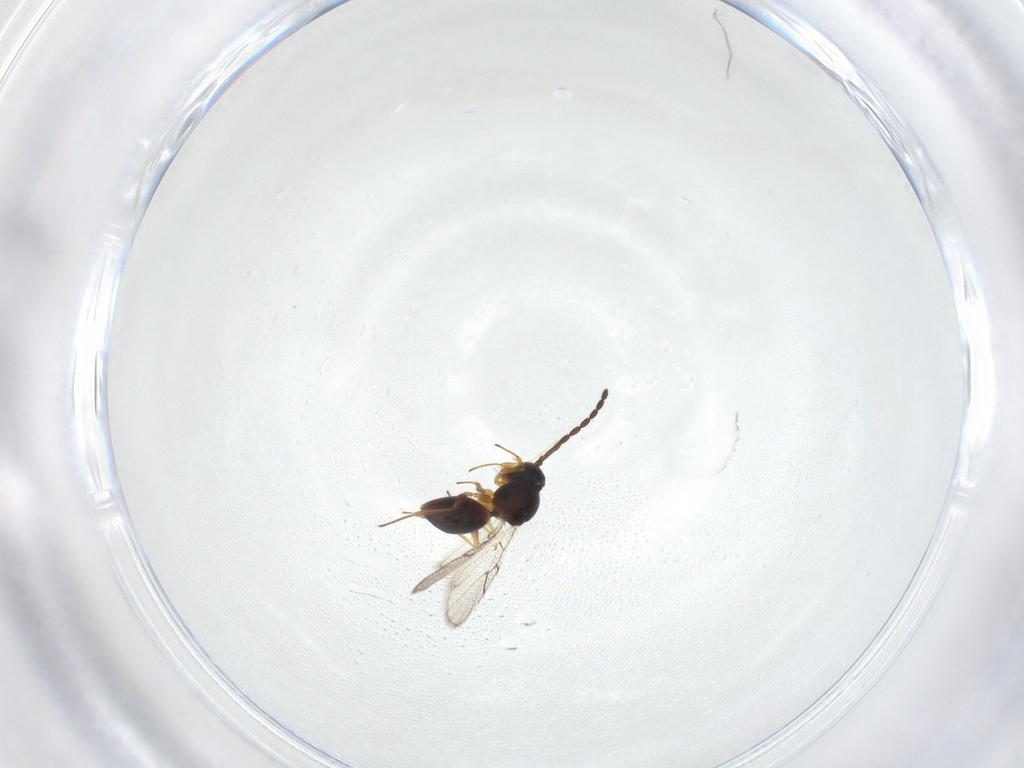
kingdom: Animalia
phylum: Arthropoda
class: Insecta
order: Hymenoptera
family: Figitidae
